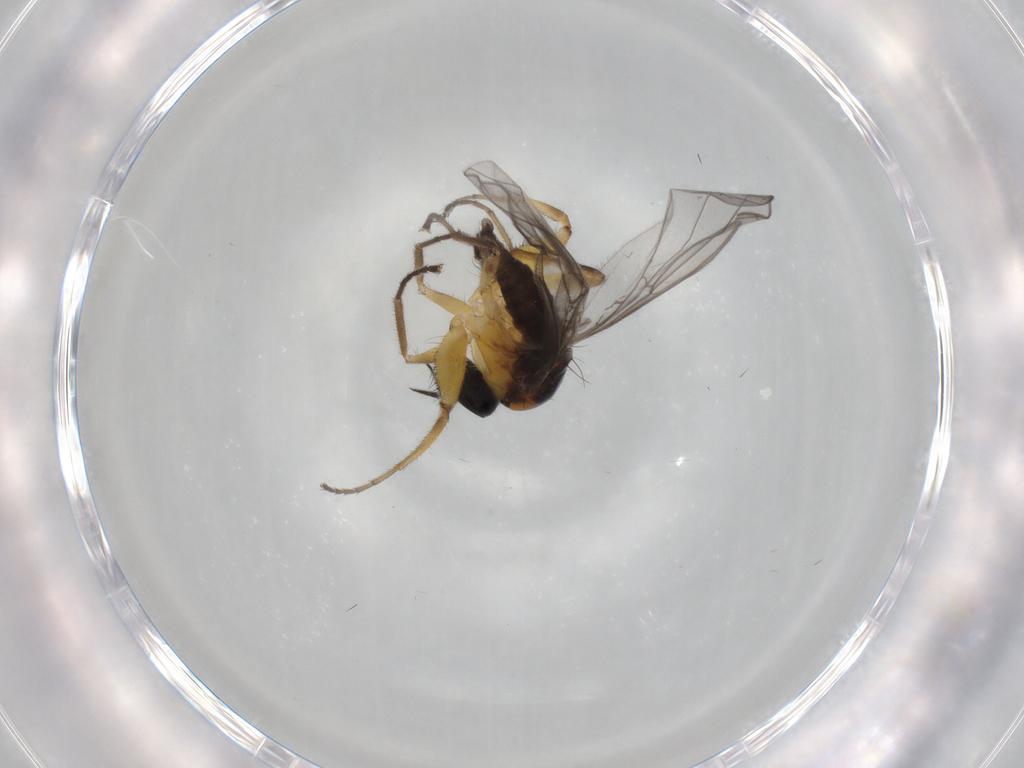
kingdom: Animalia
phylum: Arthropoda
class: Insecta
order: Diptera
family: Hybotidae
